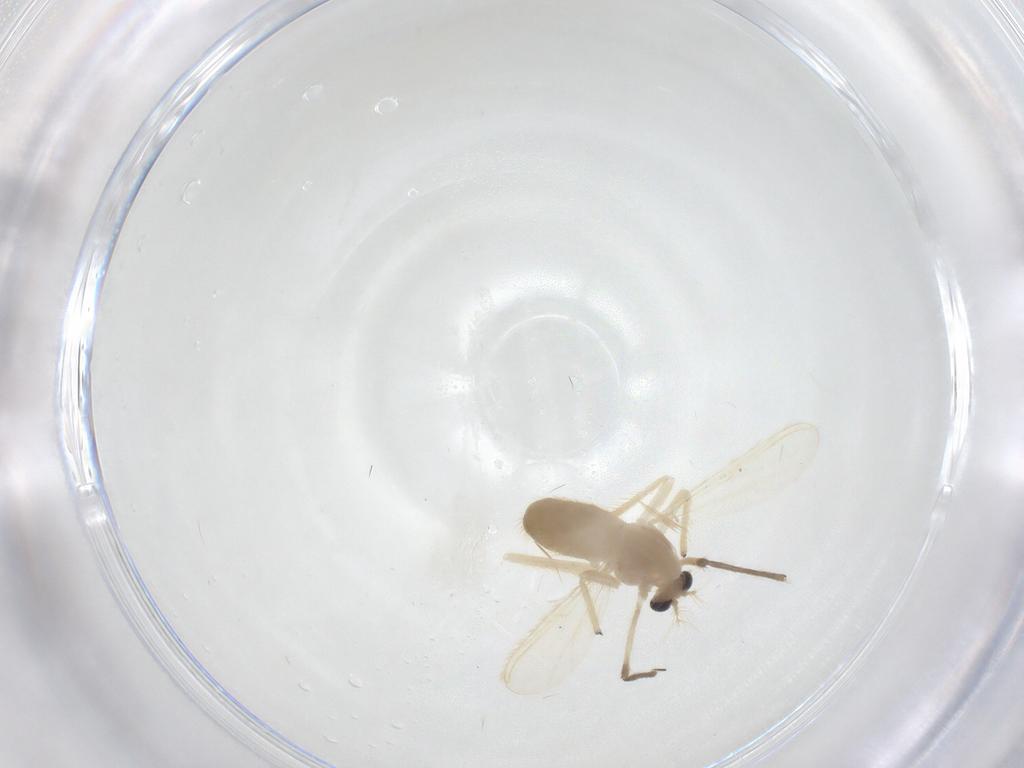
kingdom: Animalia
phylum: Arthropoda
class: Insecta
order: Diptera
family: Chironomidae
